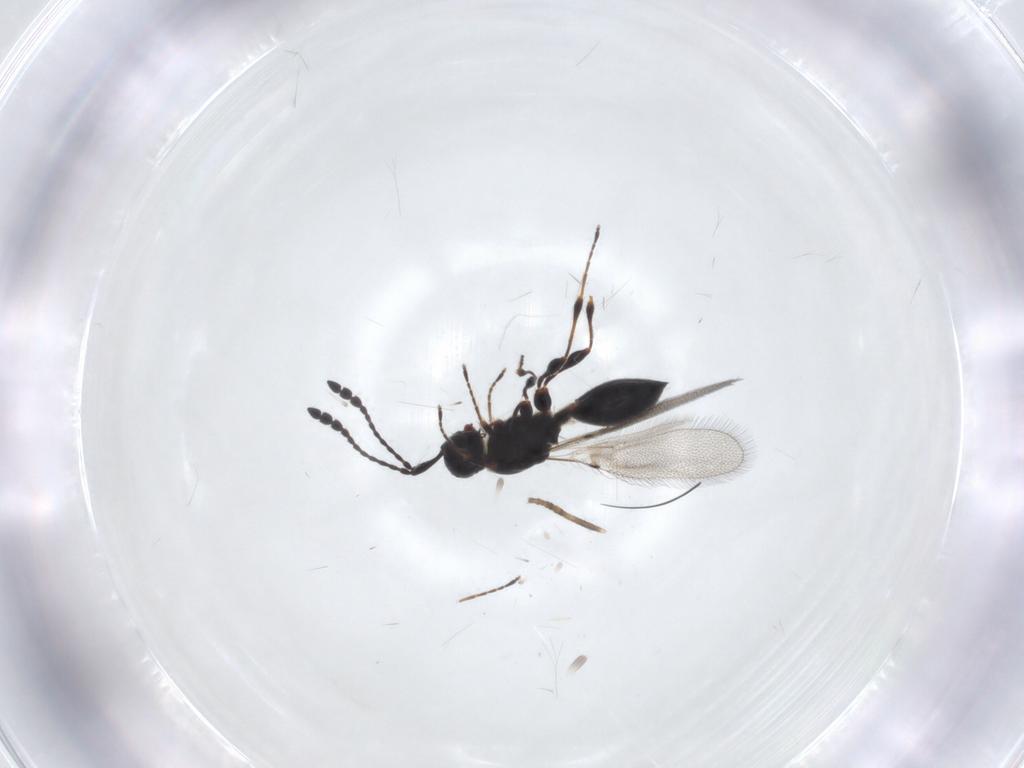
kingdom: Animalia
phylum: Arthropoda
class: Insecta
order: Hymenoptera
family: Diapriidae
